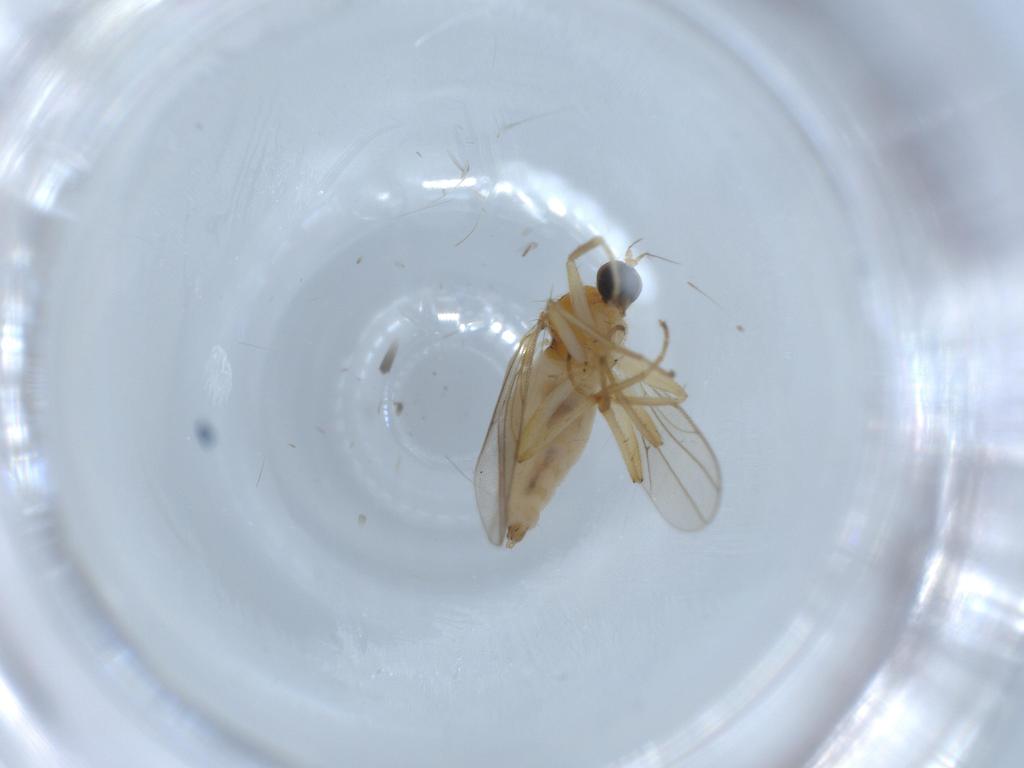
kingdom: Animalia
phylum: Arthropoda
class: Insecta
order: Diptera
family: Hybotidae
